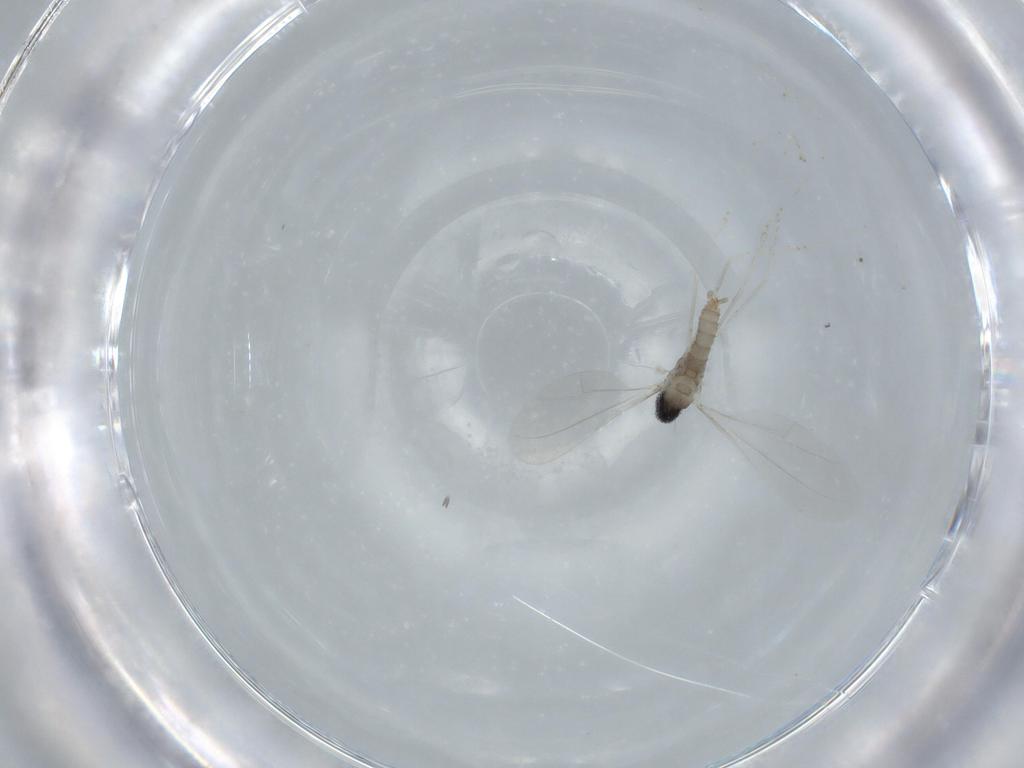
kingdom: Animalia
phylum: Arthropoda
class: Insecta
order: Diptera
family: Cecidomyiidae
